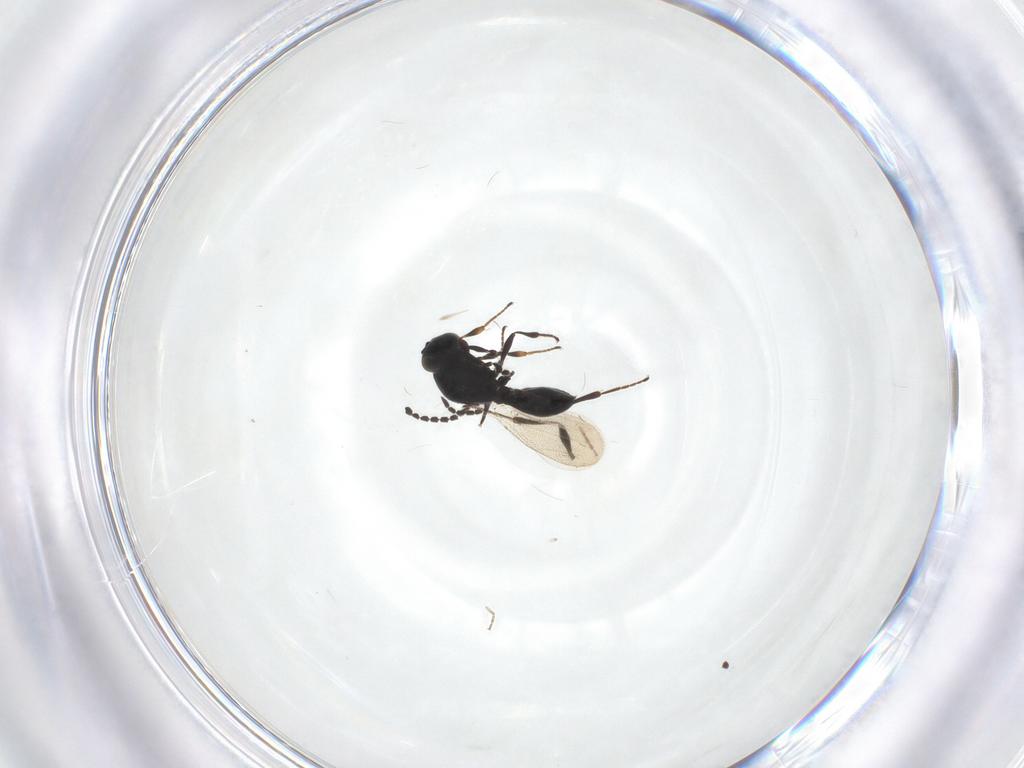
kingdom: Animalia
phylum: Arthropoda
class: Insecta
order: Hymenoptera
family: Platygastridae
